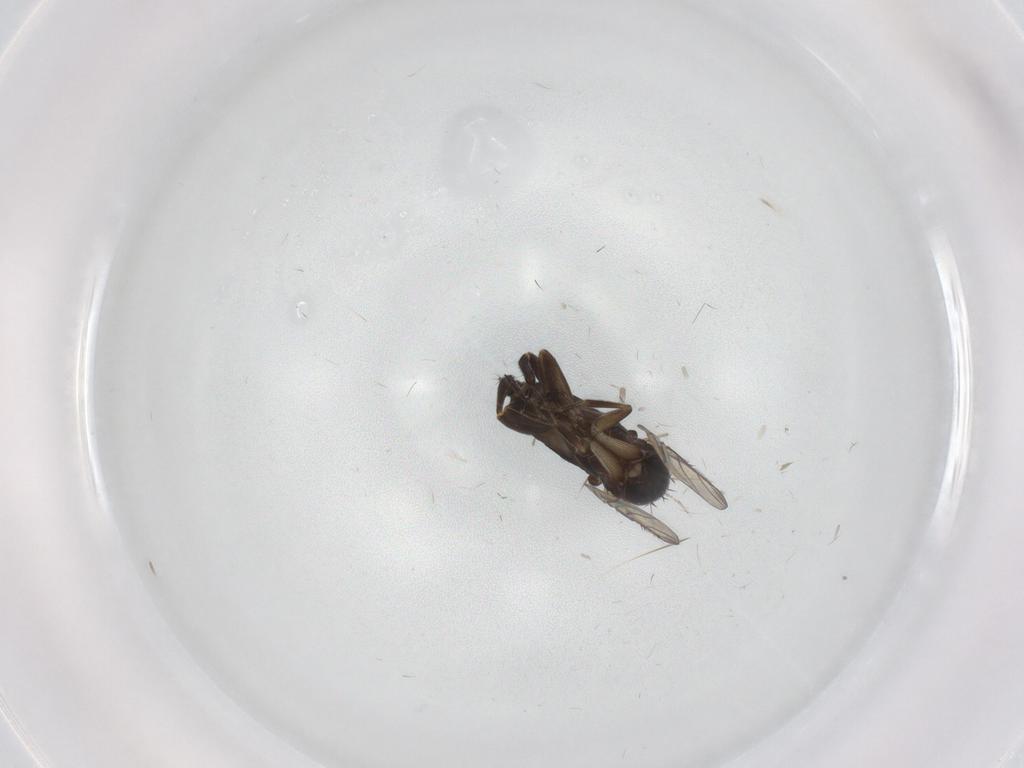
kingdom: Animalia
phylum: Arthropoda
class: Insecta
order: Diptera
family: Phoridae
